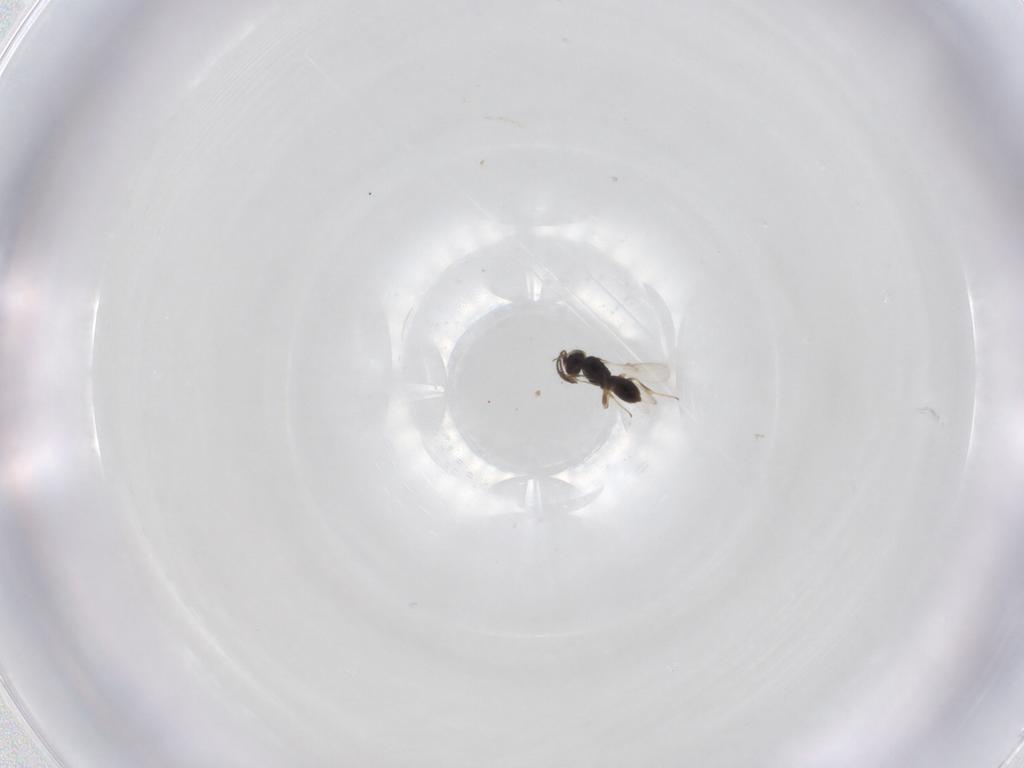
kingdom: Animalia
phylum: Arthropoda
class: Insecta
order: Hymenoptera
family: Scelionidae
